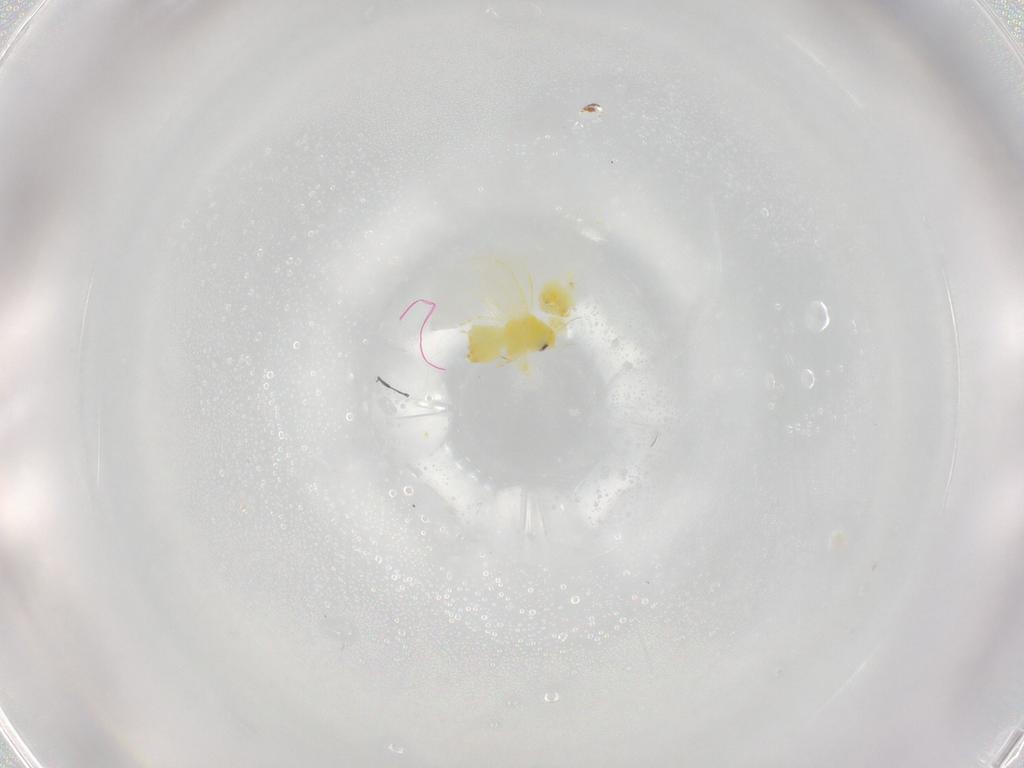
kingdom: Animalia
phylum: Arthropoda
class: Insecta
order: Hemiptera
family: Aleyrodidae
